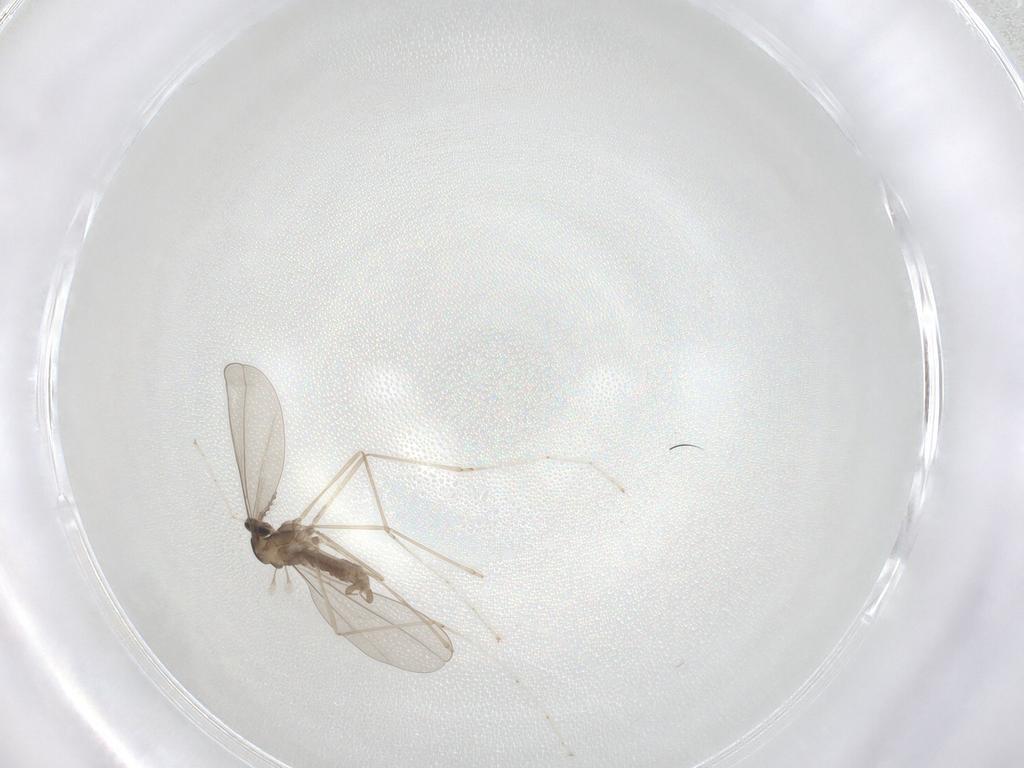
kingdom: Animalia
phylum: Arthropoda
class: Insecta
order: Diptera
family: Cecidomyiidae
